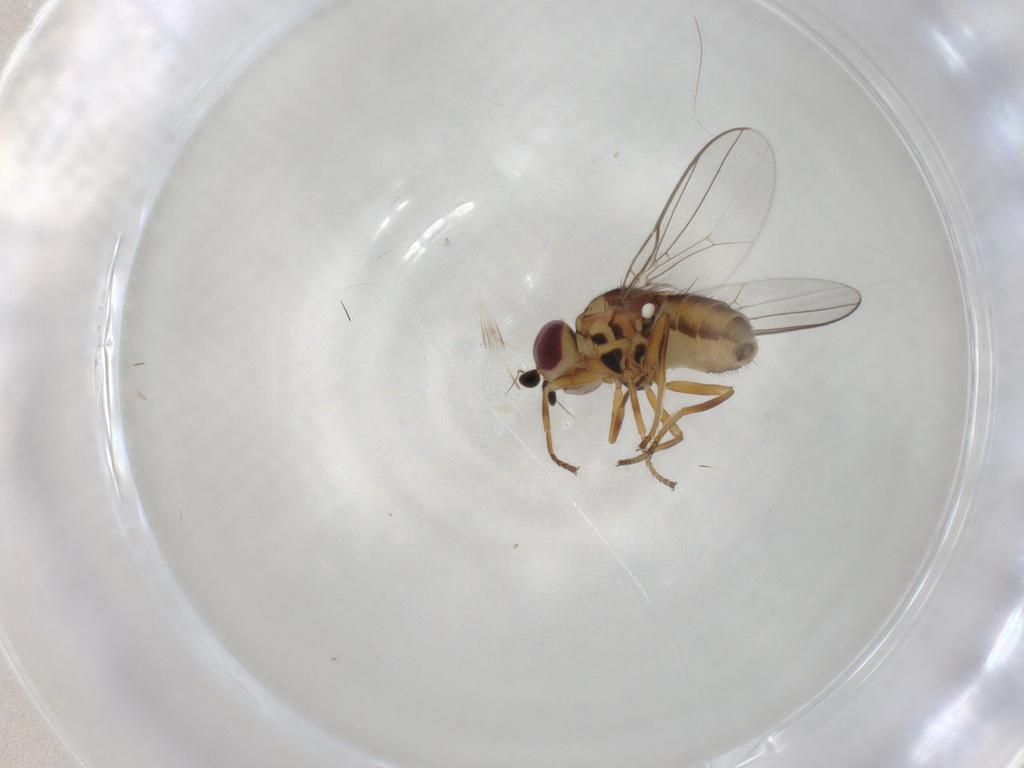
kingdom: Animalia
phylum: Arthropoda
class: Insecta
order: Diptera
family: Chloropidae
